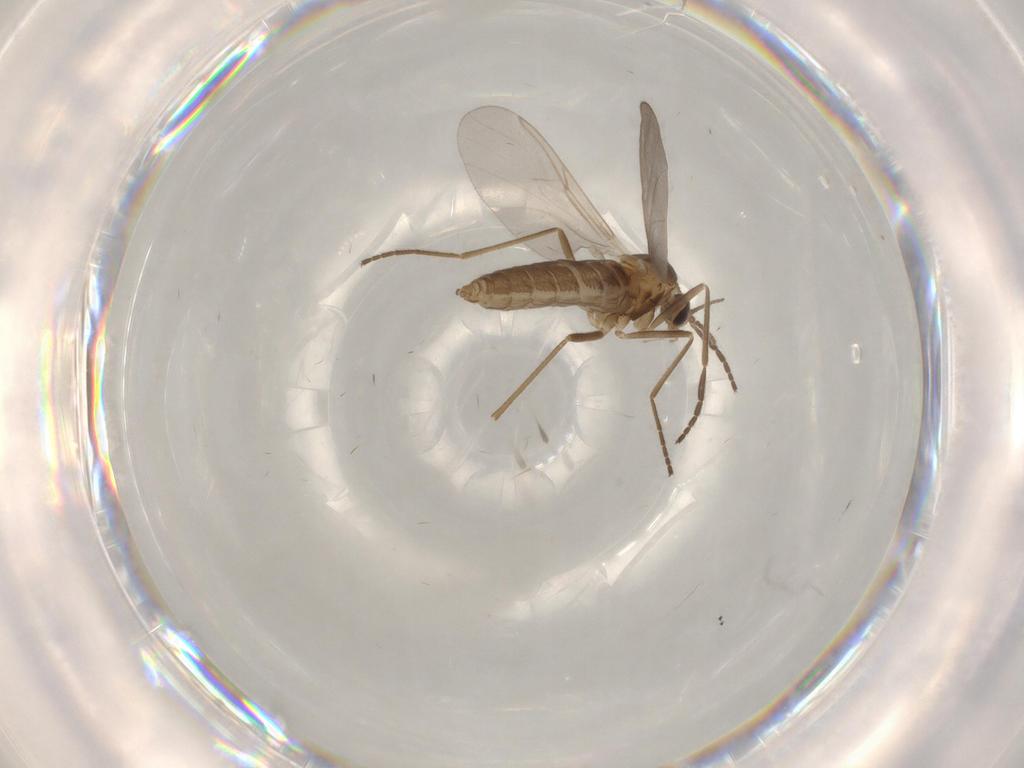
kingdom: Animalia
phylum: Arthropoda
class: Insecta
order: Diptera
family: Cecidomyiidae
